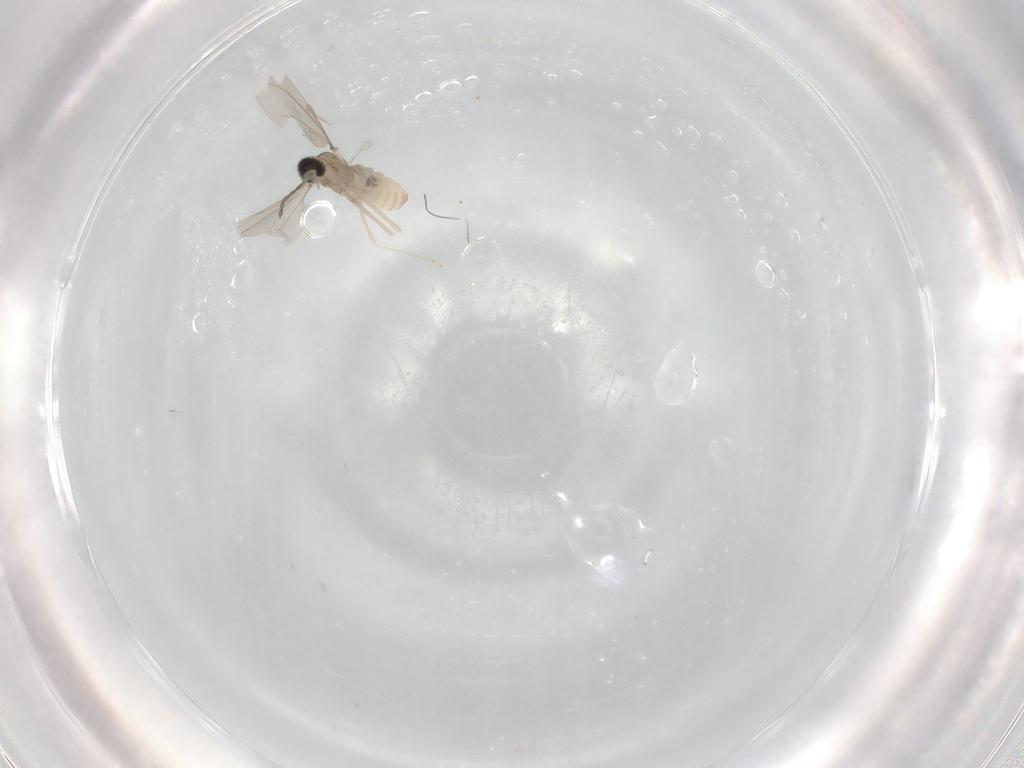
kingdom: Animalia
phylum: Arthropoda
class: Insecta
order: Diptera
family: Cecidomyiidae
